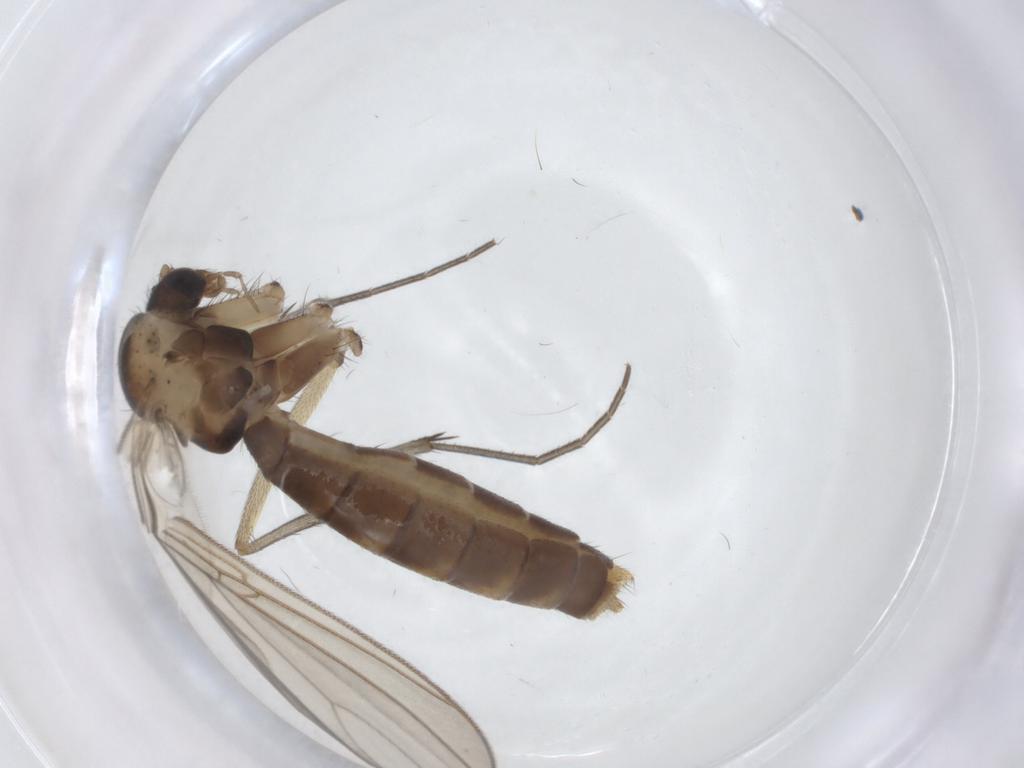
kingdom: Animalia
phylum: Arthropoda
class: Insecta
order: Diptera
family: Mycetophilidae
